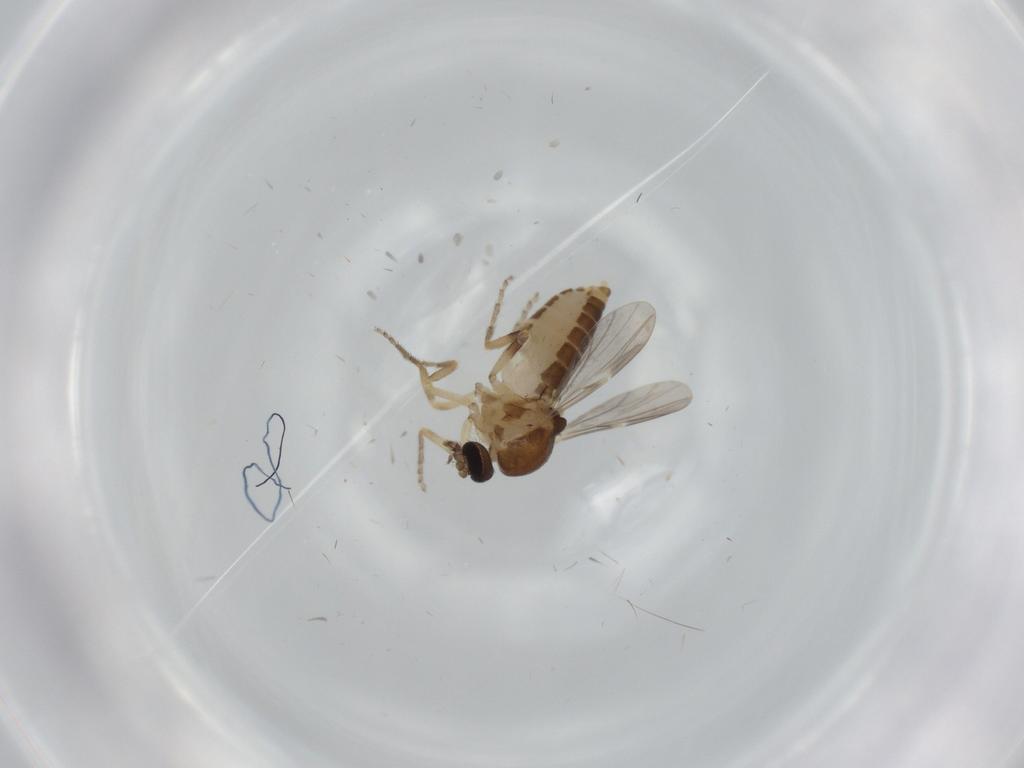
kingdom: Animalia
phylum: Arthropoda
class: Insecta
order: Diptera
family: Ceratopogonidae
